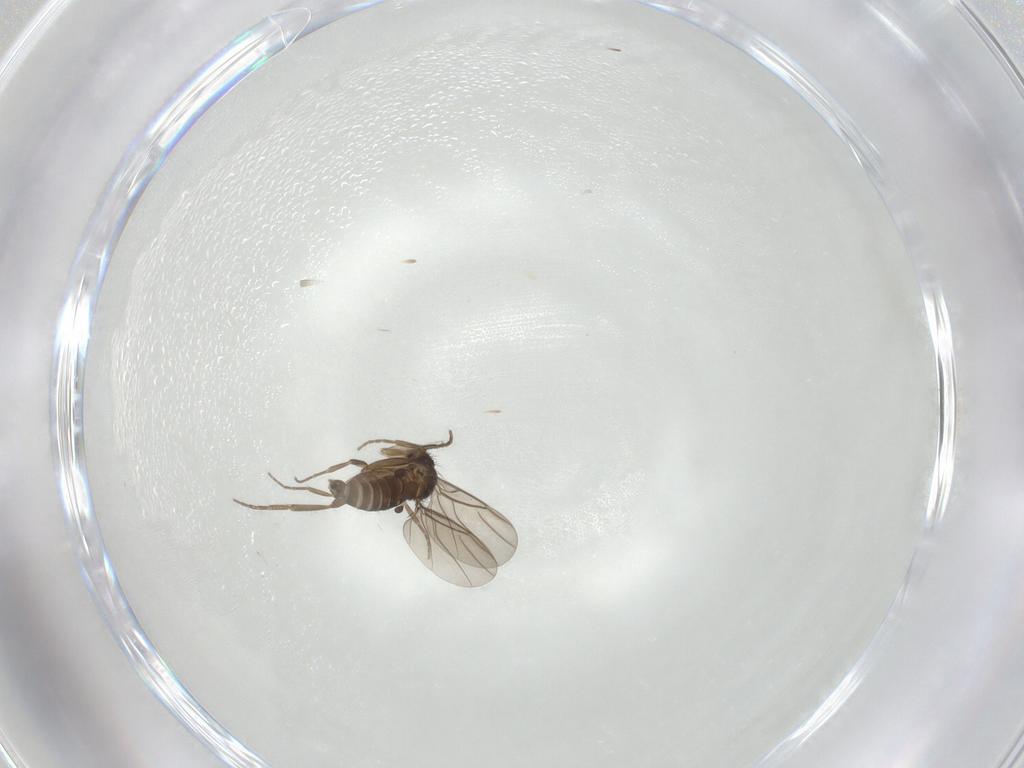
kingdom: Animalia
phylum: Arthropoda
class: Insecta
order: Diptera
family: Phoridae
